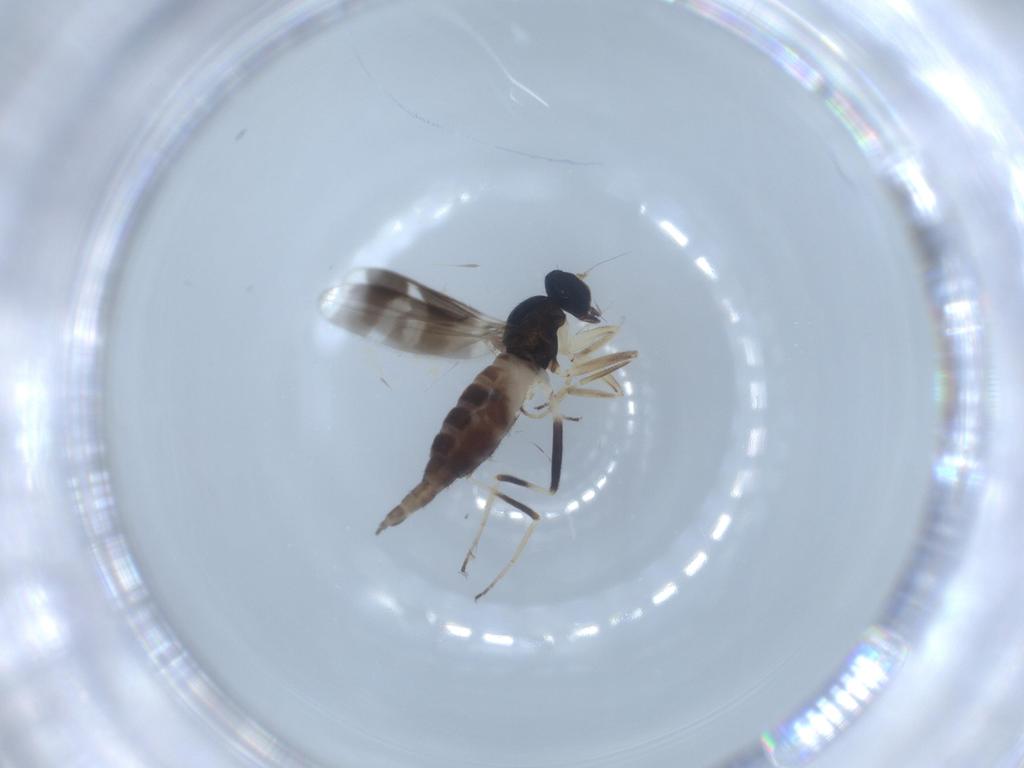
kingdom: Animalia
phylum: Arthropoda
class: Insecta
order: Diptera
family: Hybotidae
